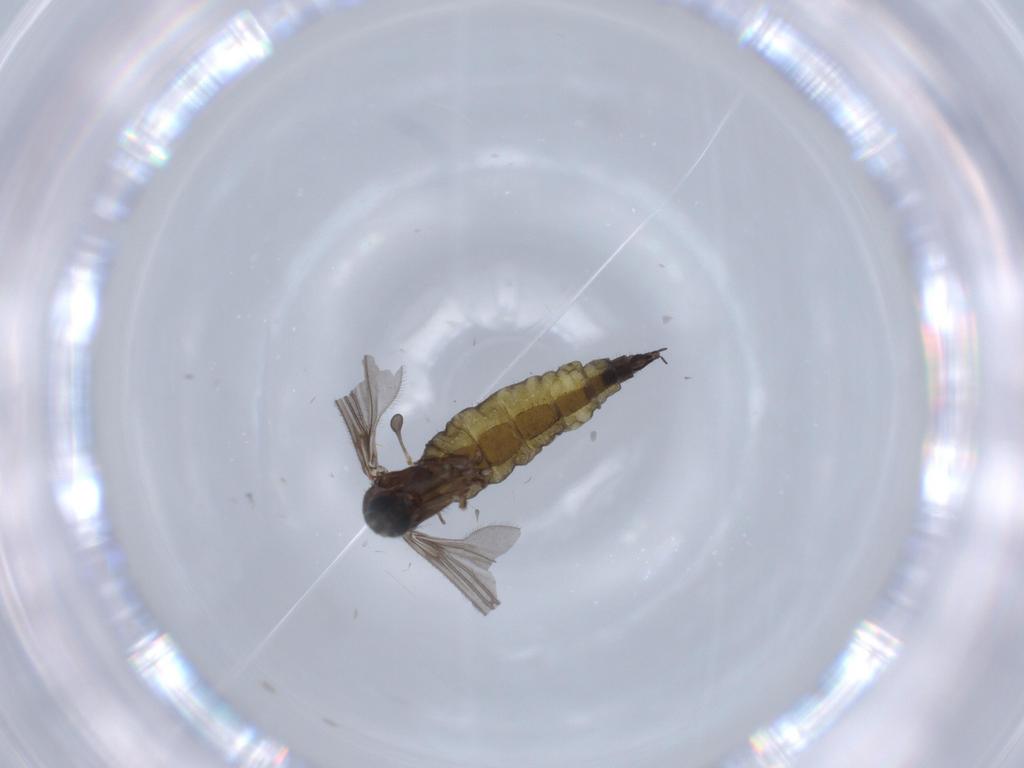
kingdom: Animalia
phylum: Arthropoda
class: Insecta
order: Diptera
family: Sciaridae
